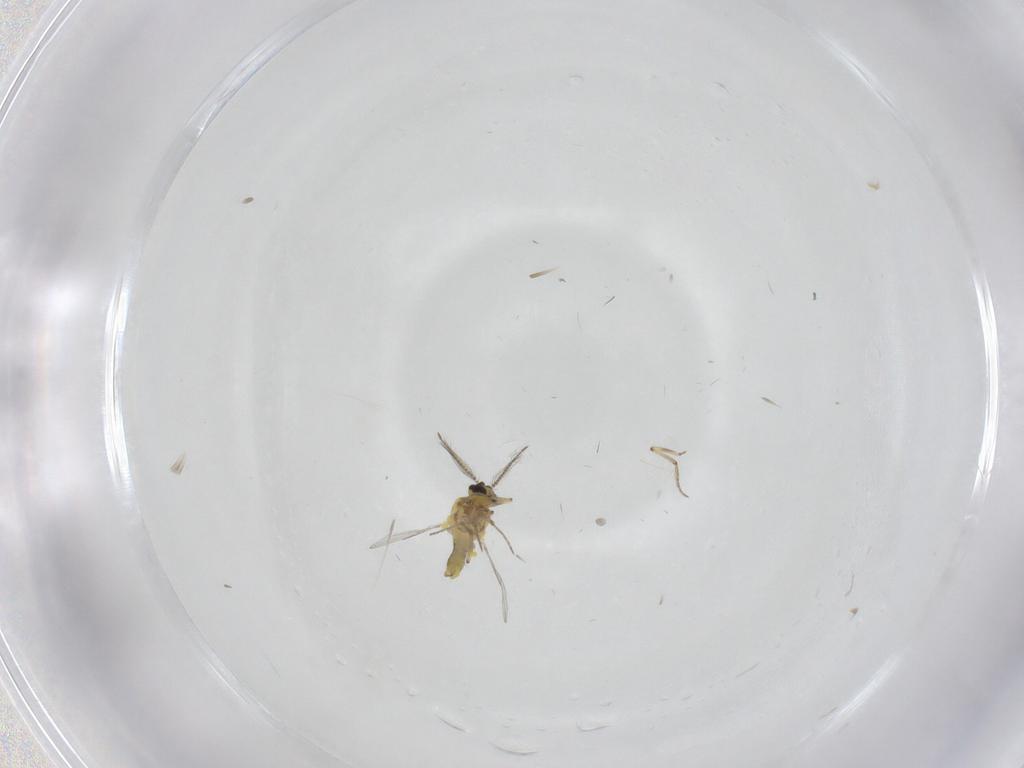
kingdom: Animalia
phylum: Arthropoda
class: Insecta
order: Diptera
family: Ceratopogonidae
